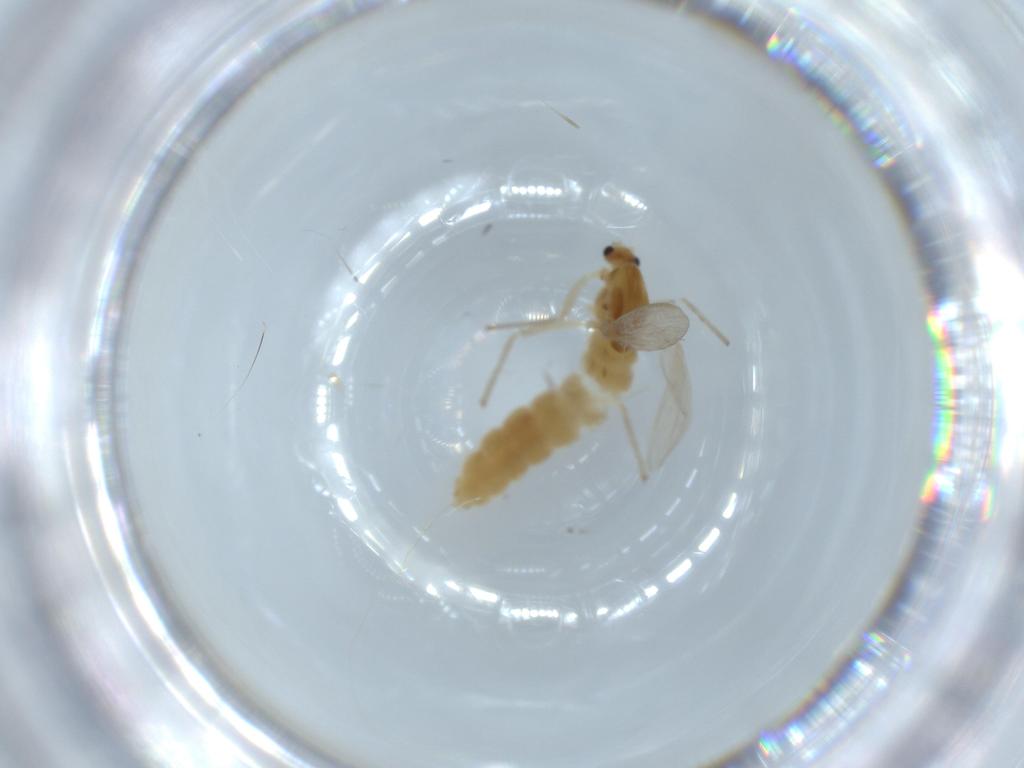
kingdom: Animalia
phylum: Arthropoda
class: Insecta
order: Diptera
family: Chironomidae
